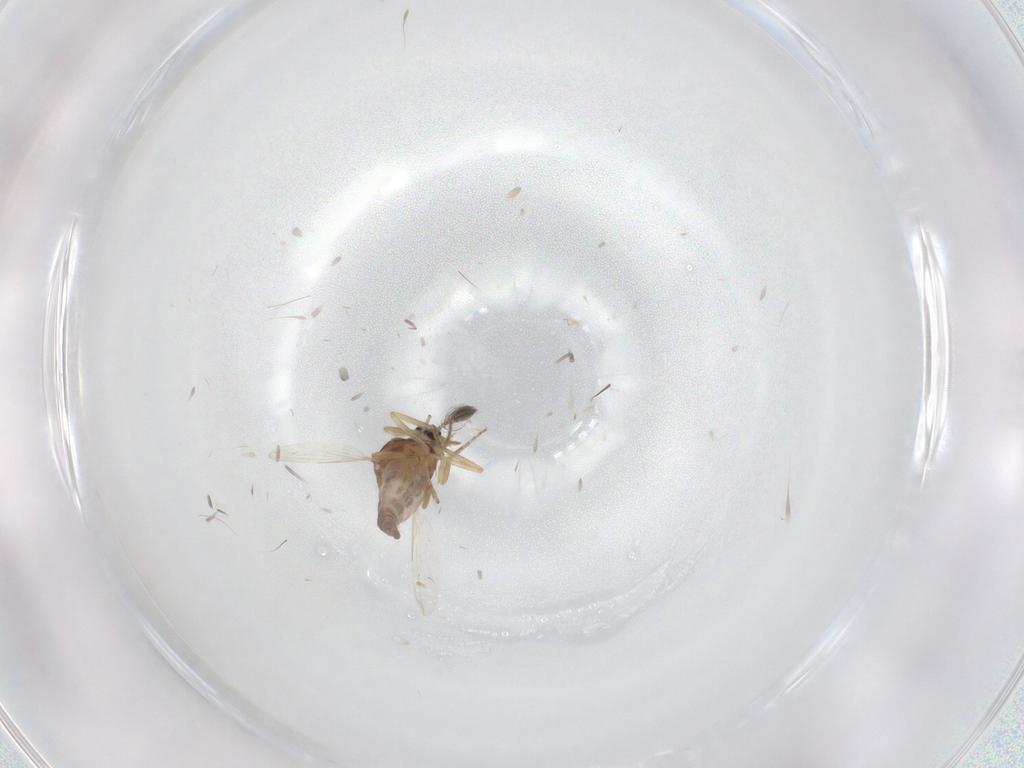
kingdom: Animalia
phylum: Arthropoda
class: Insecta
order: Diptera
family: Ceratopogonidae
